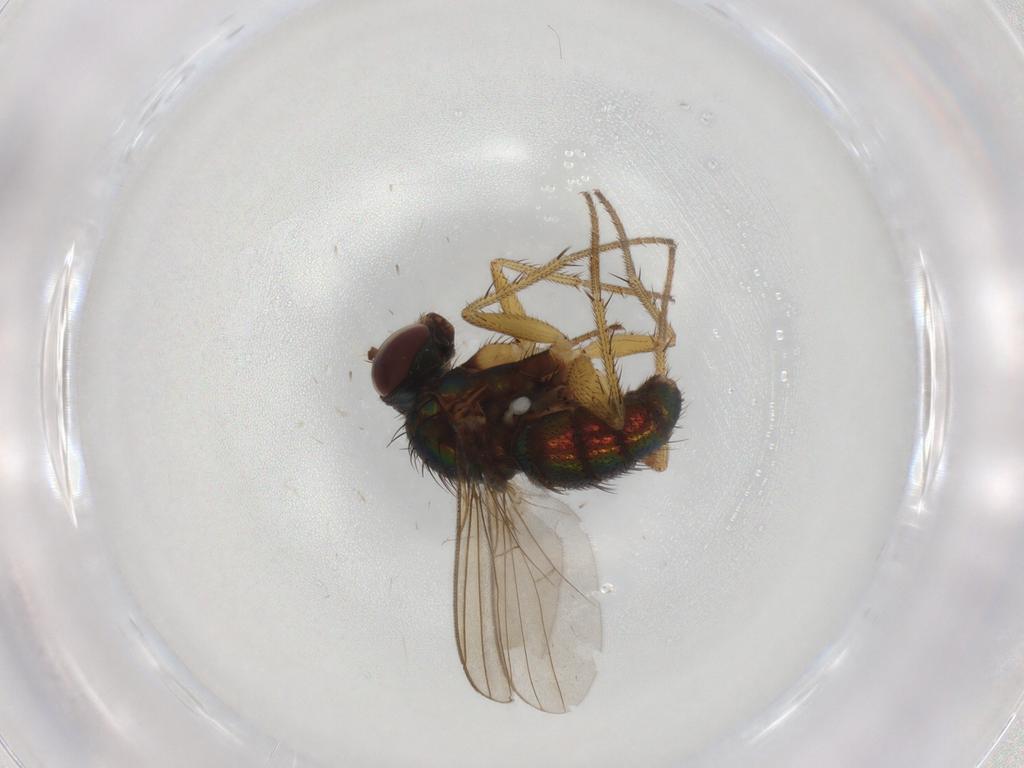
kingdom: Animalia
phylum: Arthropoda
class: Insecta
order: Diptera
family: Dolichopodidae
